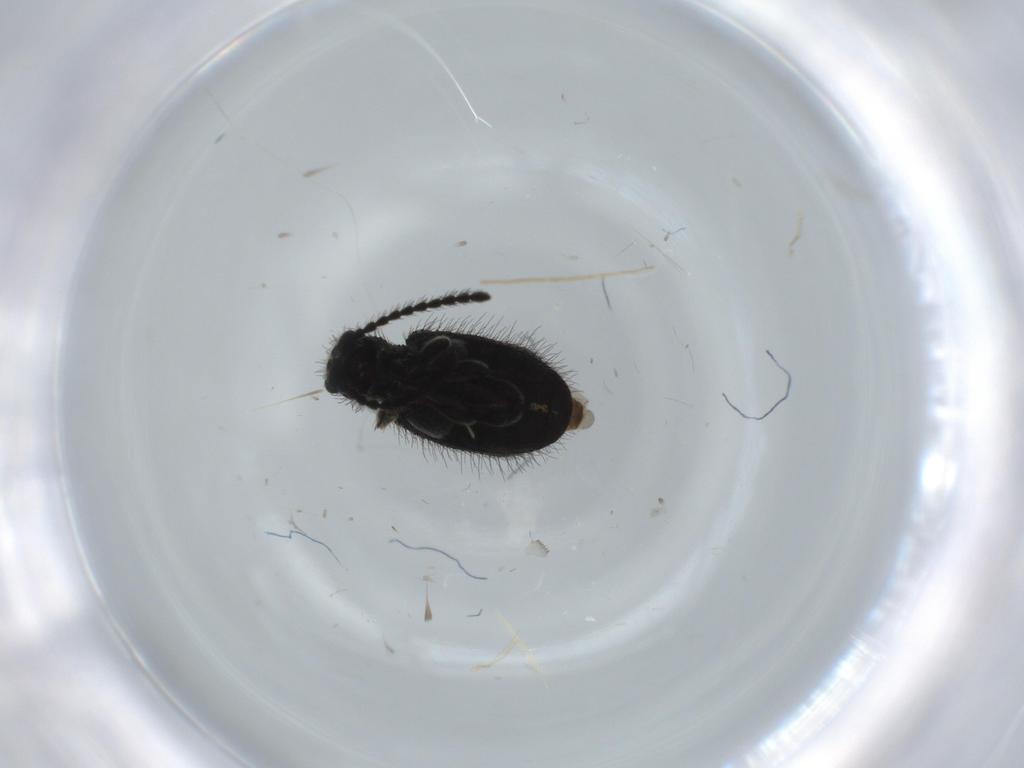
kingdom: Animalia
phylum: Arthropoda
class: Insecta
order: Coleoptera
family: Ptinidae
